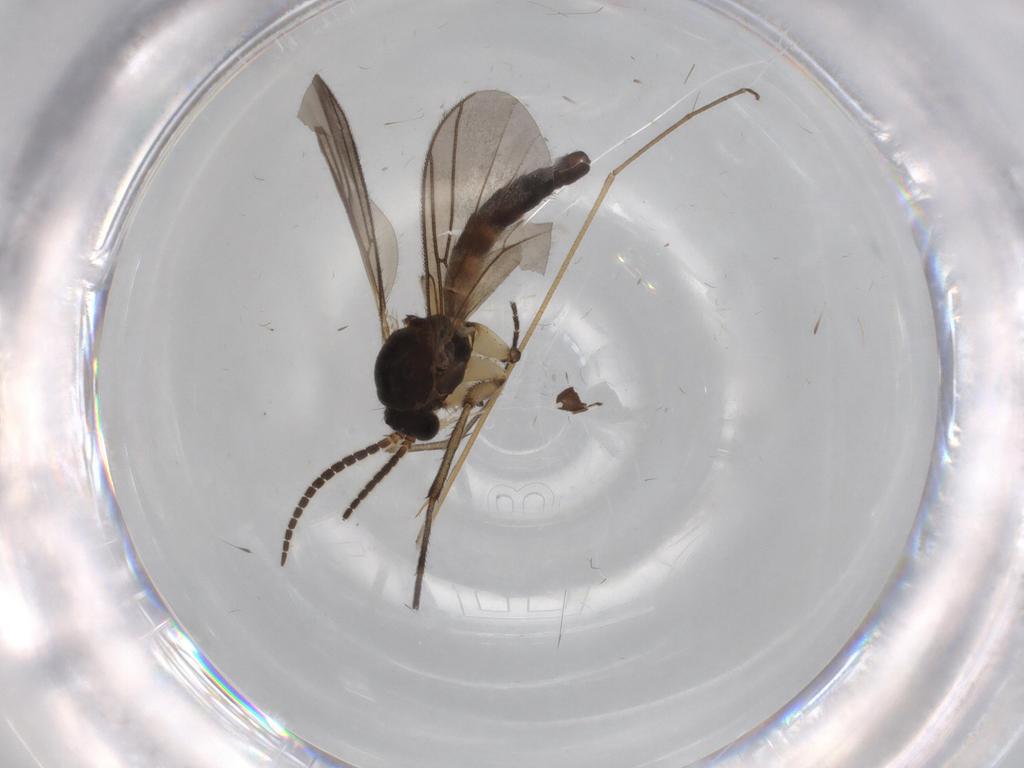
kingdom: Animalia
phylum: Arthropoda
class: Insecta
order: Diptera
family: Mycetophilidae
